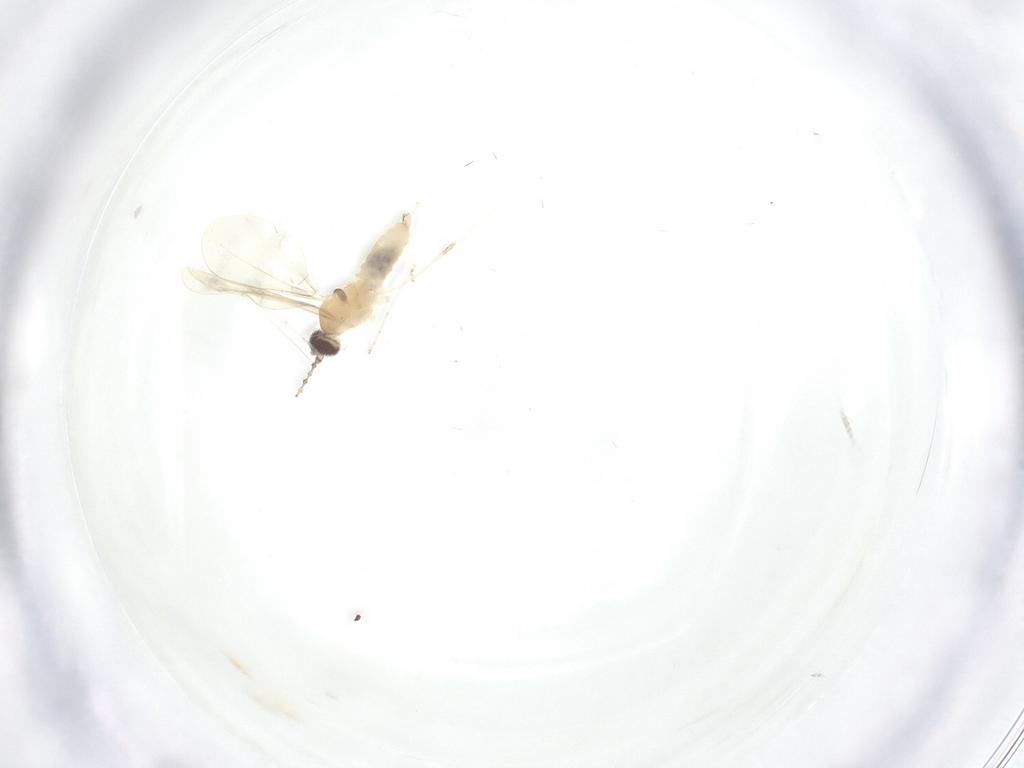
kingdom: Animalia
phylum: Arthropoda
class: Insecta
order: Diptera
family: Cecidomyiidae
